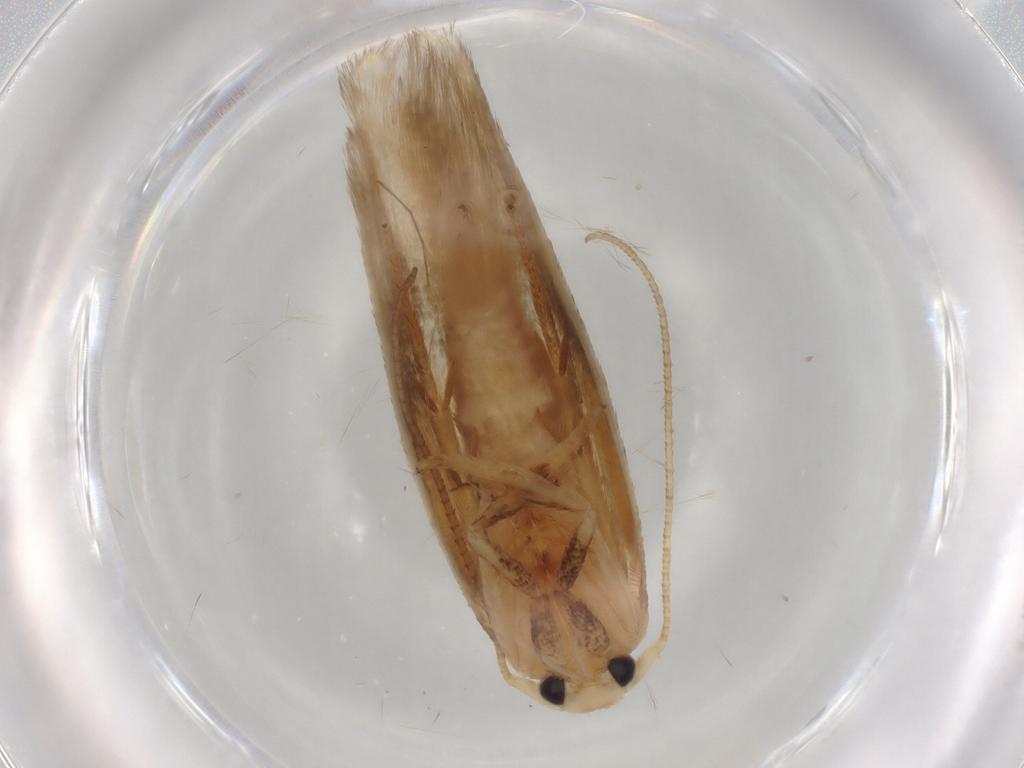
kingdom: Animalia
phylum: Arthropoda
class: Insecta
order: Lepidoptera
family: Geometridae
